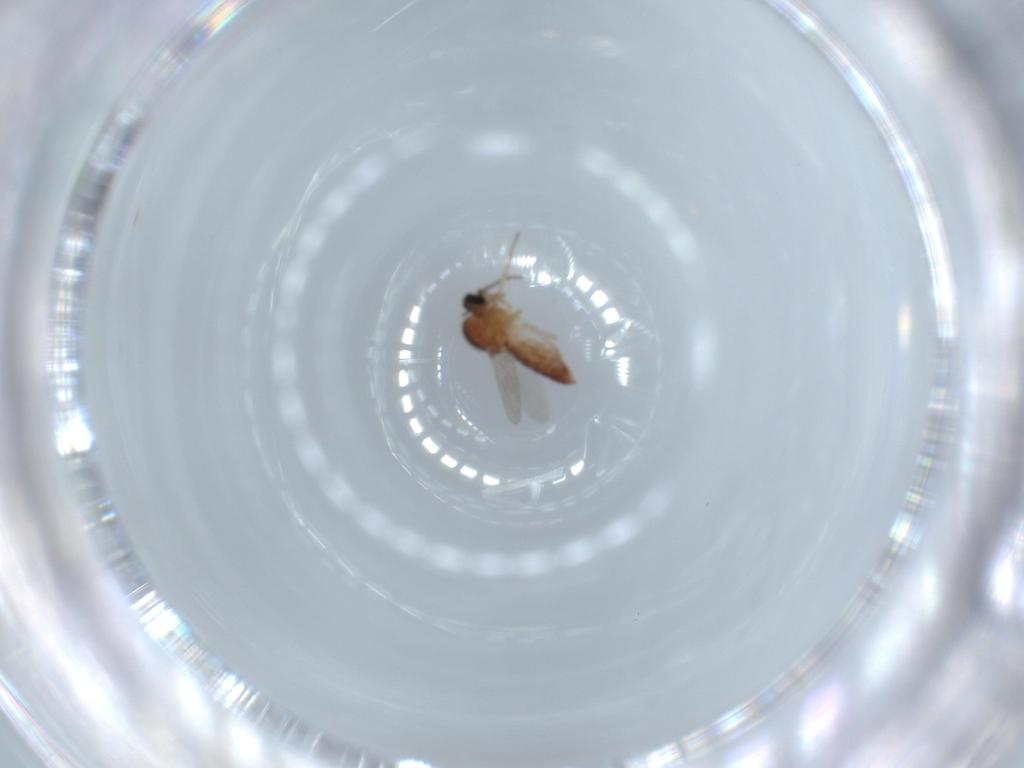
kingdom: Animalia
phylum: Arthropoda
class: Insecta
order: Diptera
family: Ceratopogonidae
